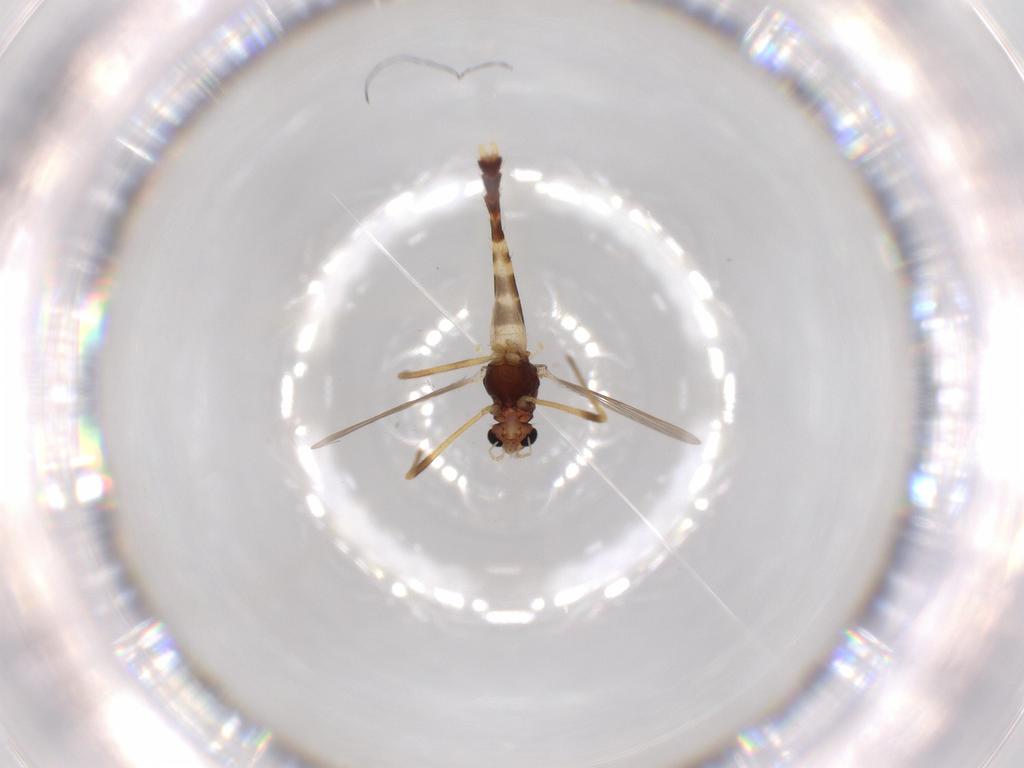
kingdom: Animalia
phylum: Arthropoda
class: Insecta
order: Diptera
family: Chironomidae
